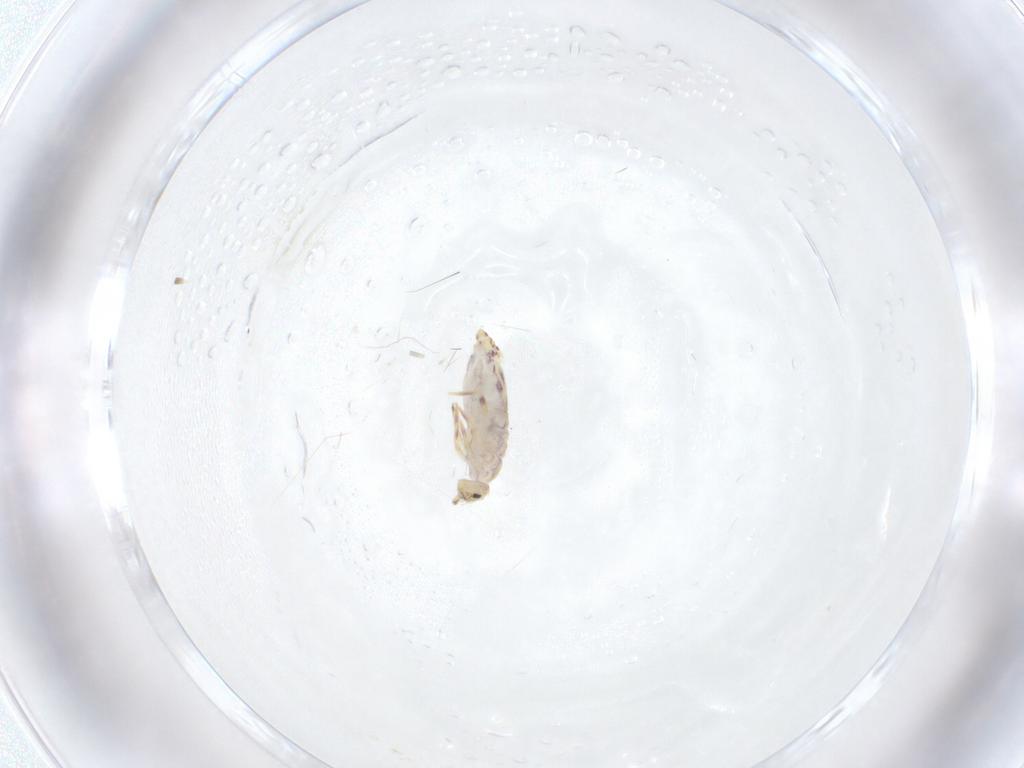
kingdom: Animalia
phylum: Arthropoda
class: Collembola
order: Entomobryomorpha
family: Entomobryidae
